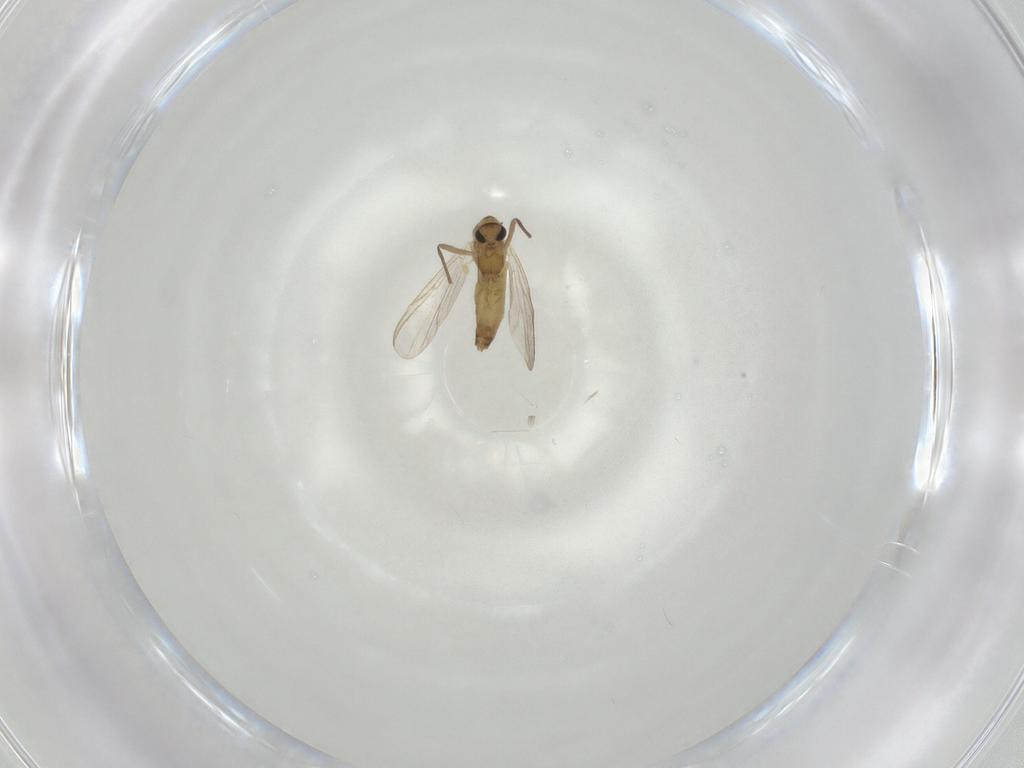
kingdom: Animalia
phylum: Arthropoda
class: Insecta
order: Diptera
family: Chironomidae
